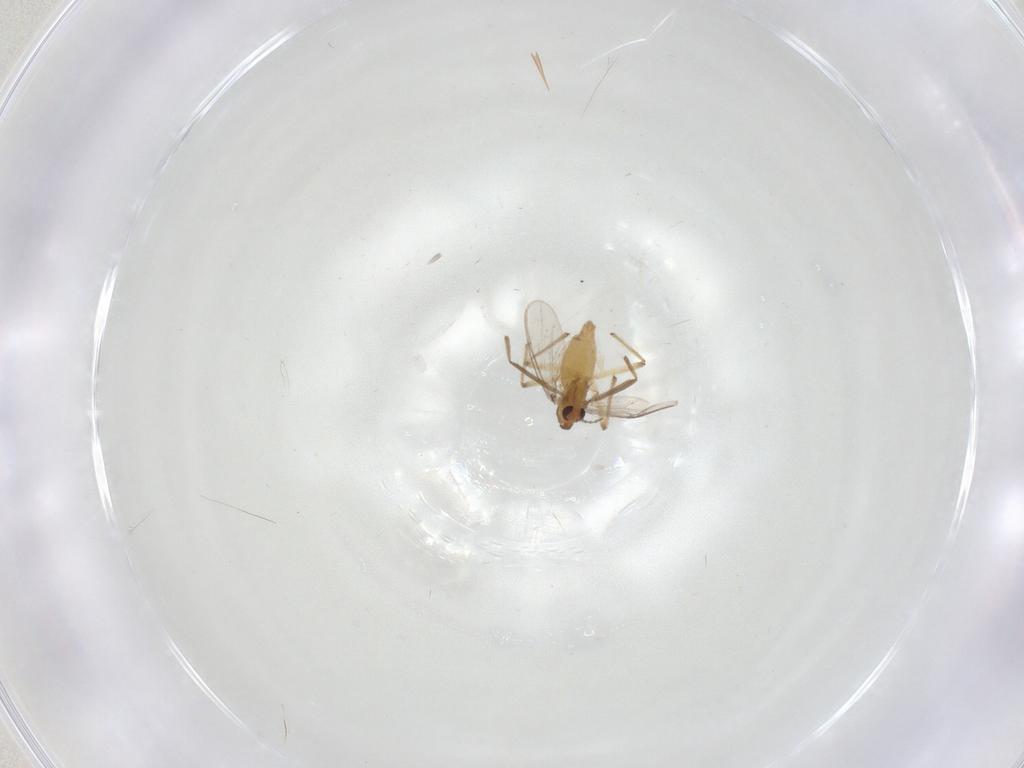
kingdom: Animalia
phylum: Arthropoda
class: Insecta
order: Diptera
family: Chironomidae
